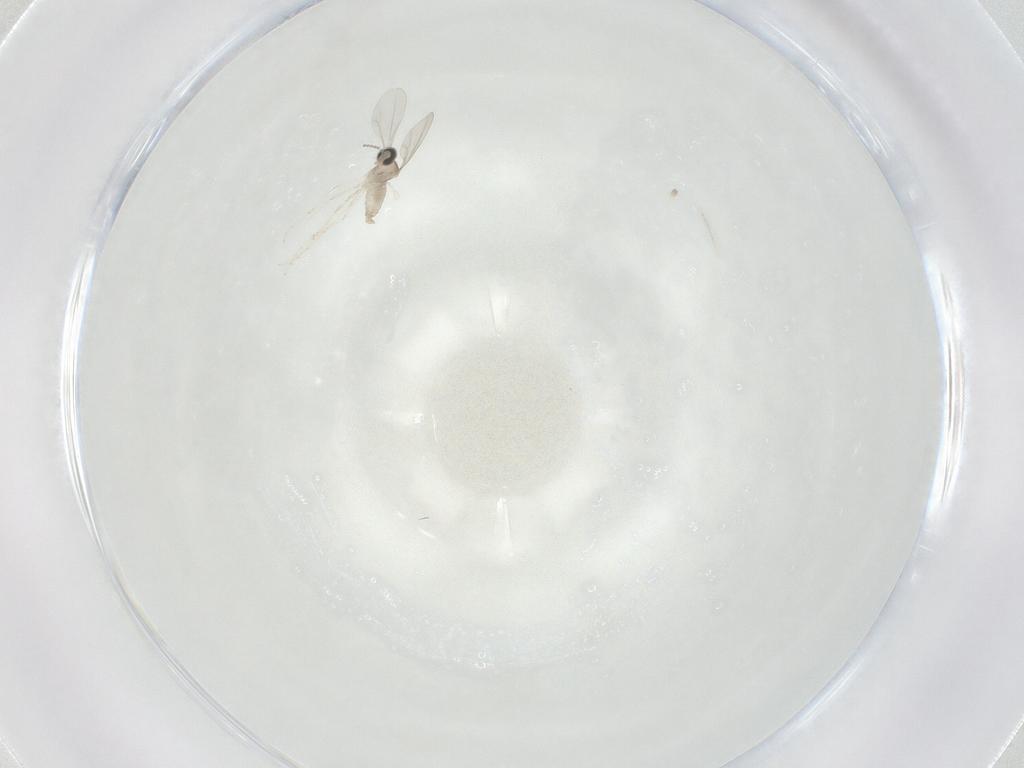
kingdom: Animalia
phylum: Arthropoda
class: Insecta
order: Diptera
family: Cecidomyiidae
